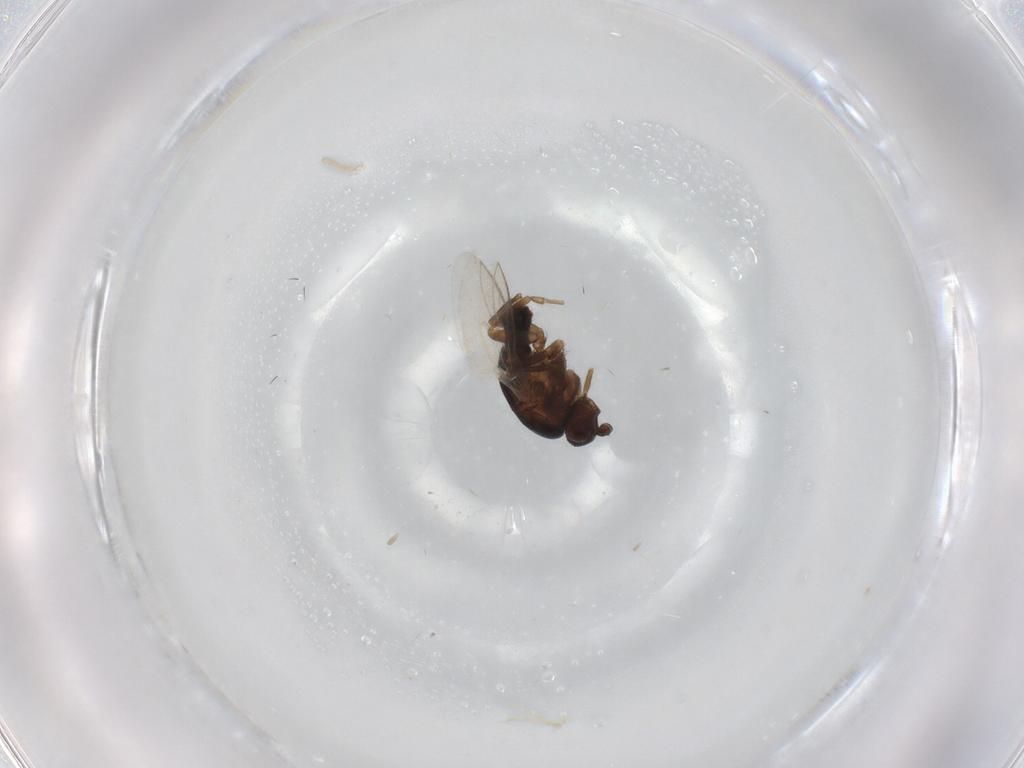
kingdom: Animalia
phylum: Arthropoda
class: Insecta
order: Diptera
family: Sphaeroceridae
